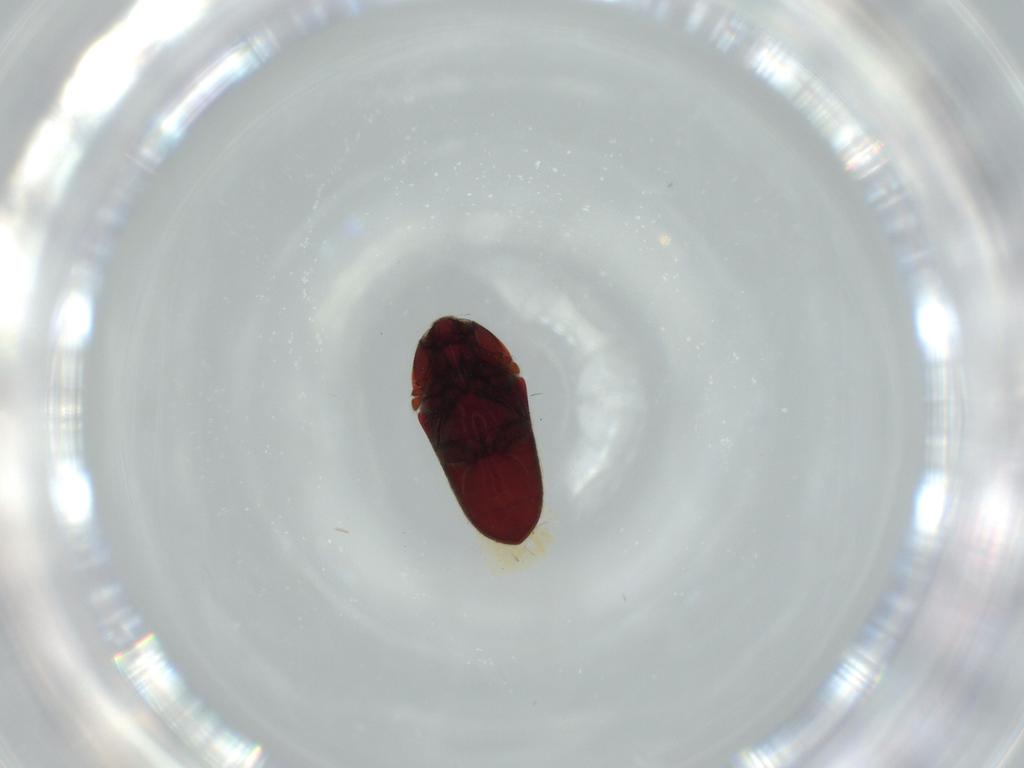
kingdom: Animalia
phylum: Arthropoda
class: Insecta
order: Coleoptera
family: Throscidae
